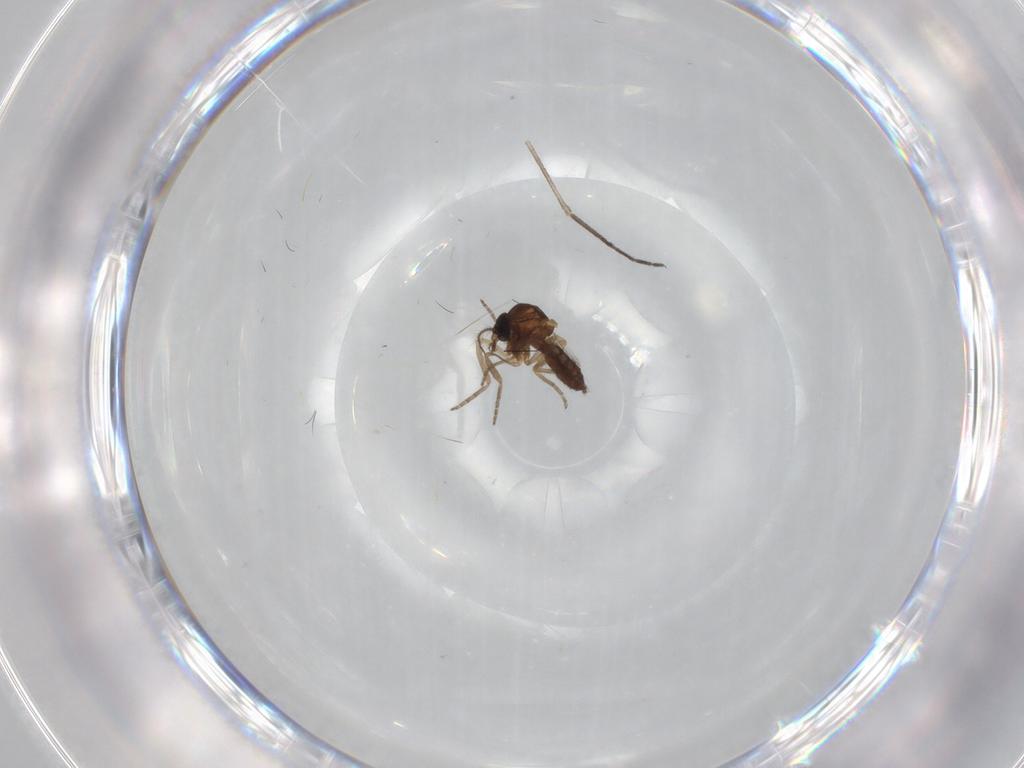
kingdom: Animalia
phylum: Arthropoda
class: Insecta
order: Diptera
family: Sciaridae
